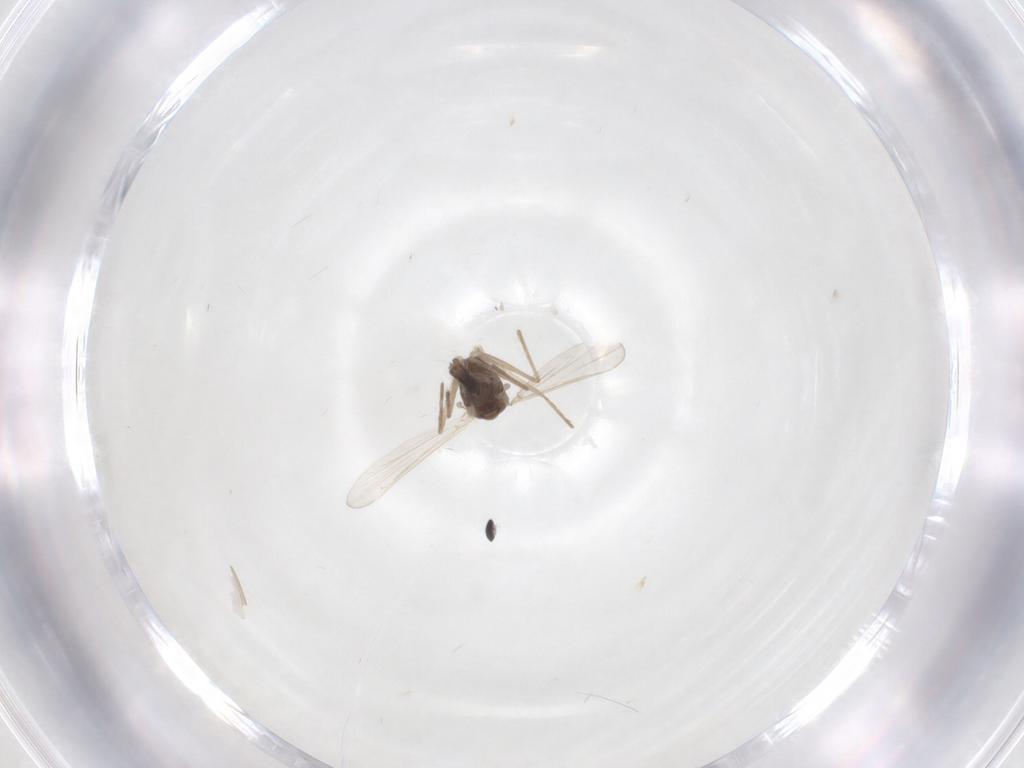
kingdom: Animalia
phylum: Arthropoda
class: Insecta
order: Diptera
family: Chironomidae
